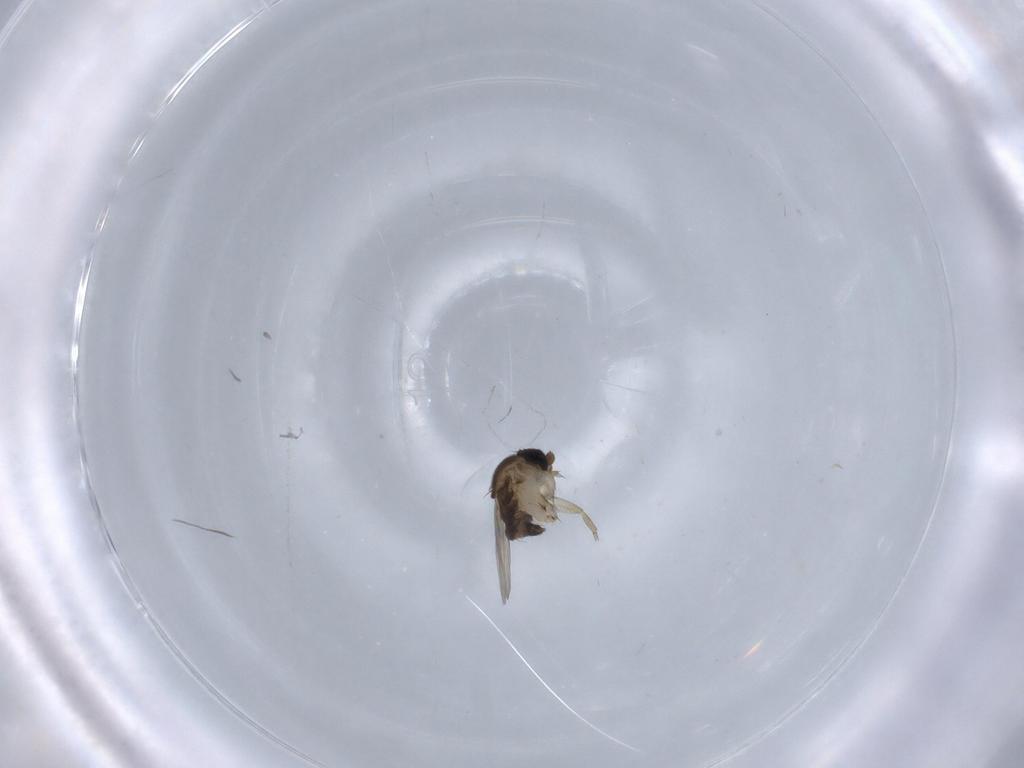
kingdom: Animalia
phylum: Arthropoda
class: Insecta
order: Diptera
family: Phoridae
